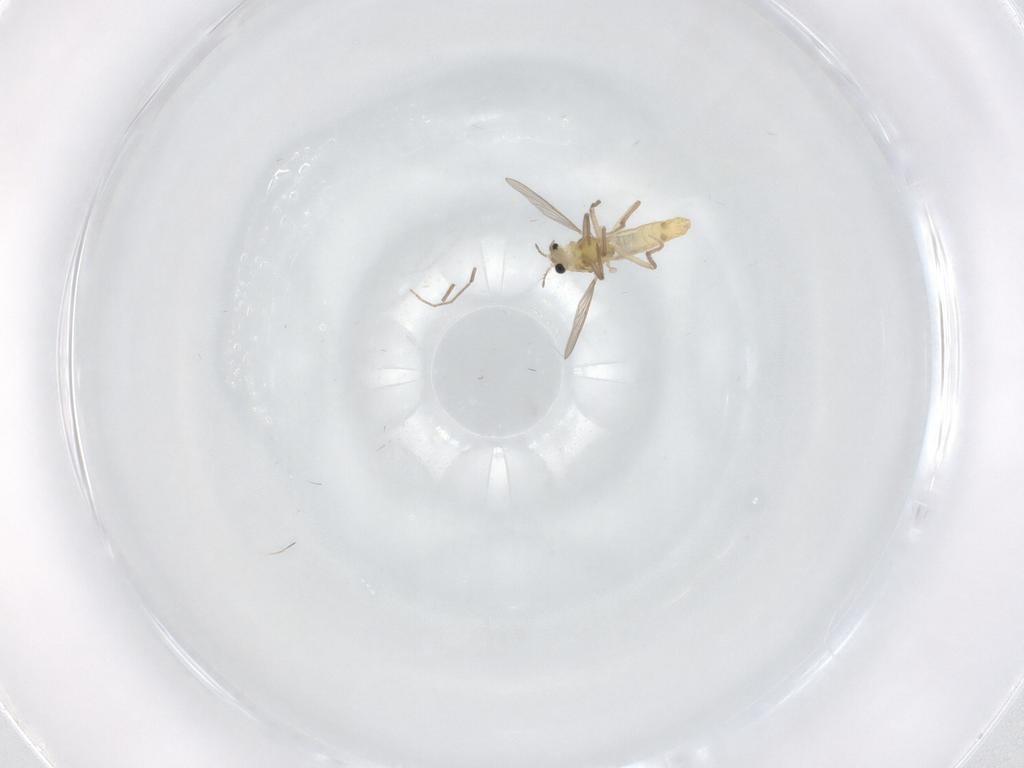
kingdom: Animalia
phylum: Arthropoda
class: Insecta
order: Diptera
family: Chironomidae
